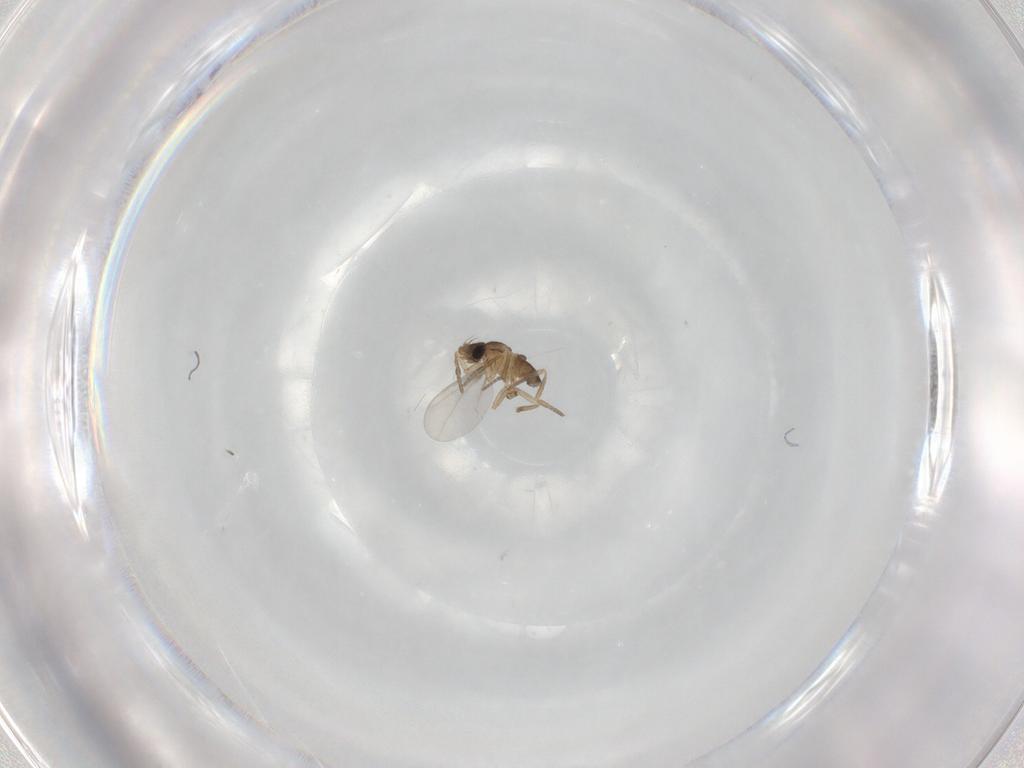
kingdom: Animalia
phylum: Arthropoda
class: Insecta
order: Diptera
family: Phoridae
